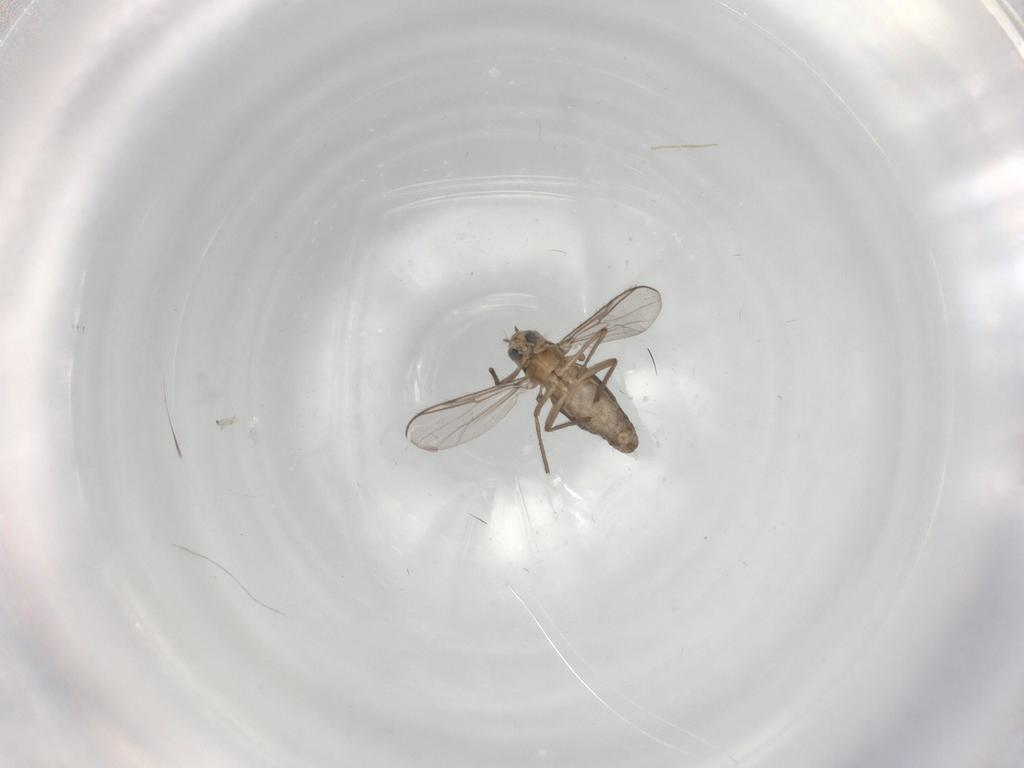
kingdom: Animalia
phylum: Arthropoda
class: Insecta
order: Diptera
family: Chironomidae
